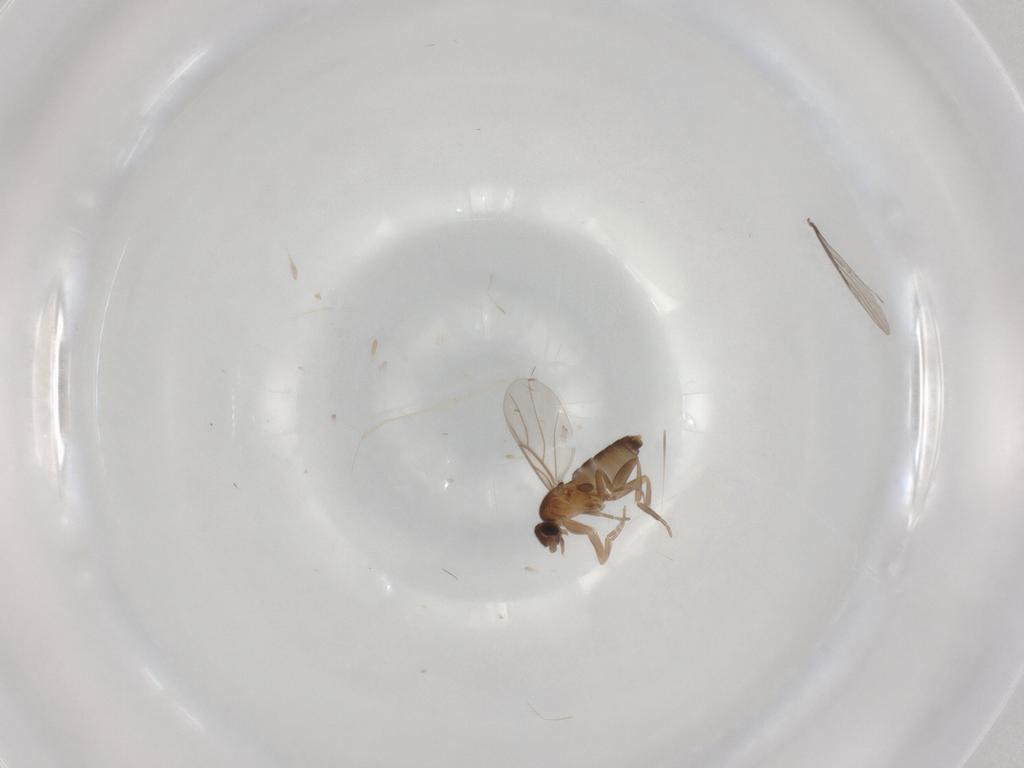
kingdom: Animalia
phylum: Arthropoda
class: Insecta
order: Diptera
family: Phoridae
